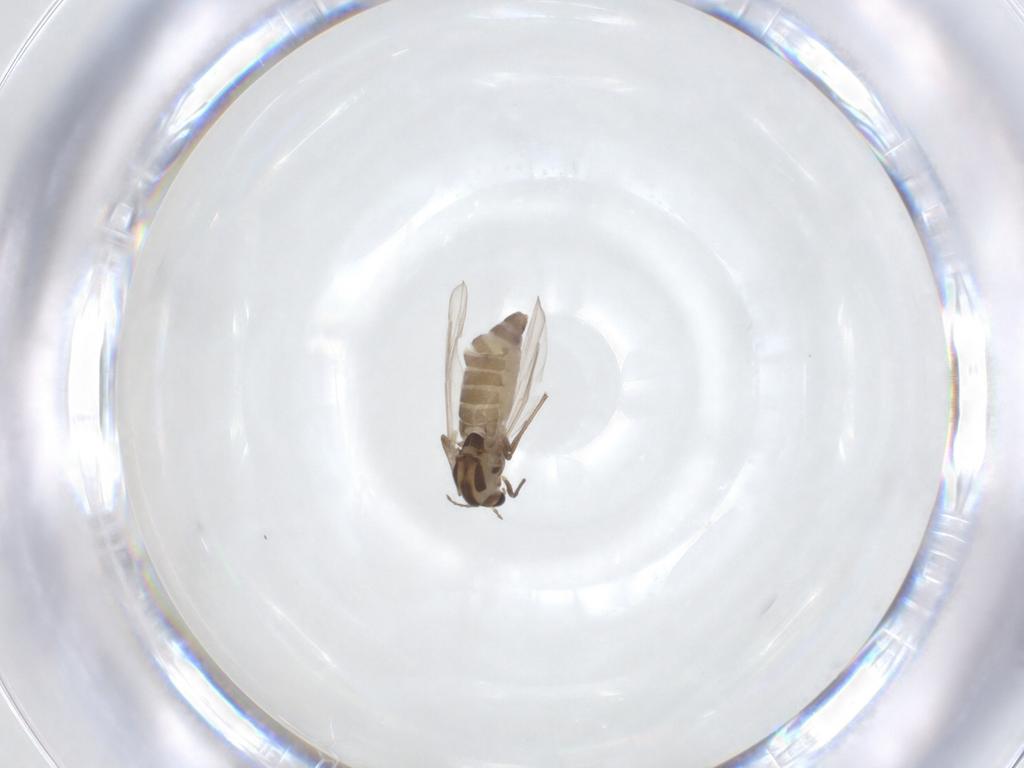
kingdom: Animalia
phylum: Arthropoda
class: Insecta
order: Diptera
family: Chironomidae
